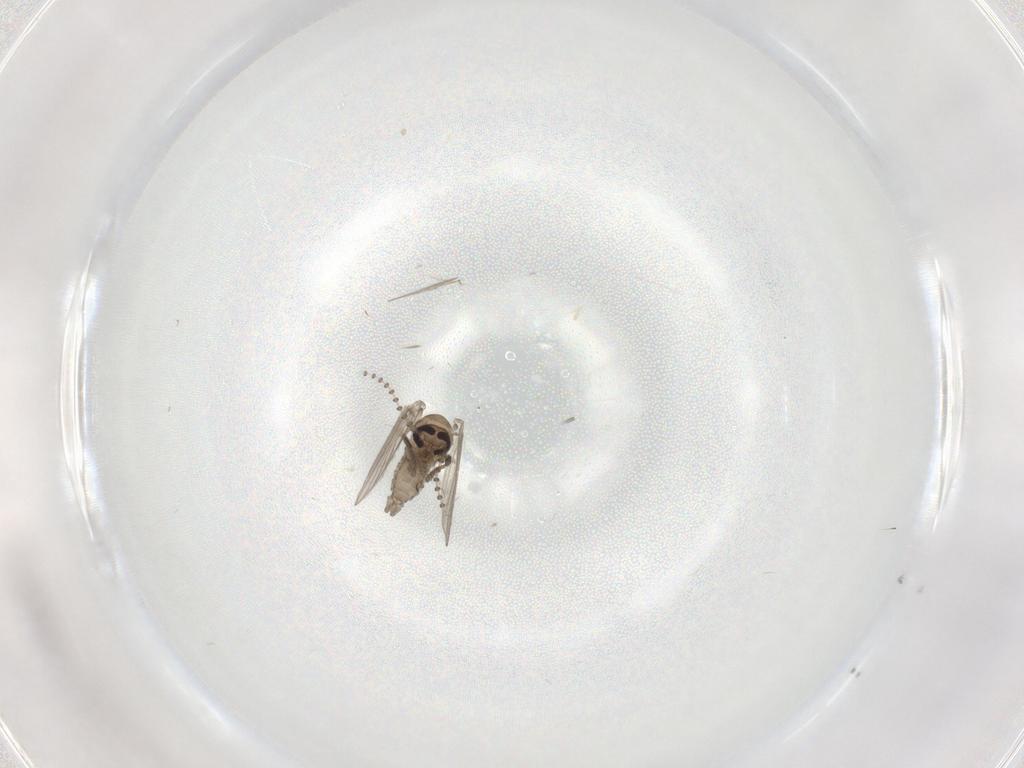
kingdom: Animalia
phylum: Arthropoda
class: Insecta
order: Diptera
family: Psychodidae
